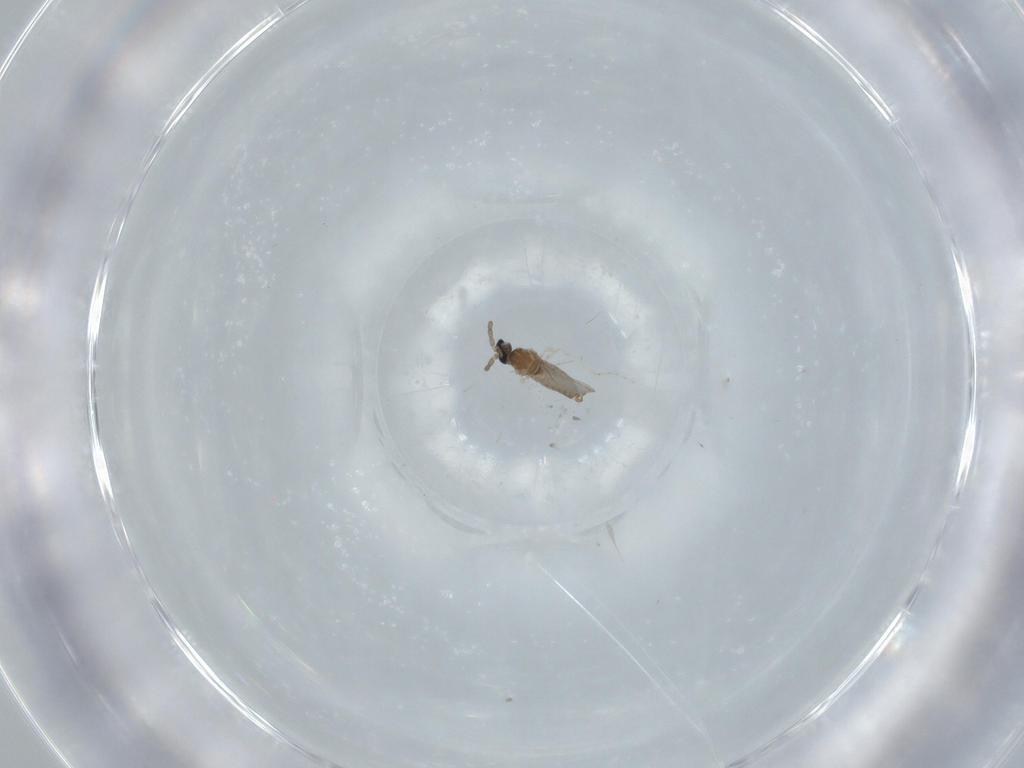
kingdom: Animalia
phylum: Arthropoda
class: Insecta
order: Diptera
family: Cecidomyiidae
